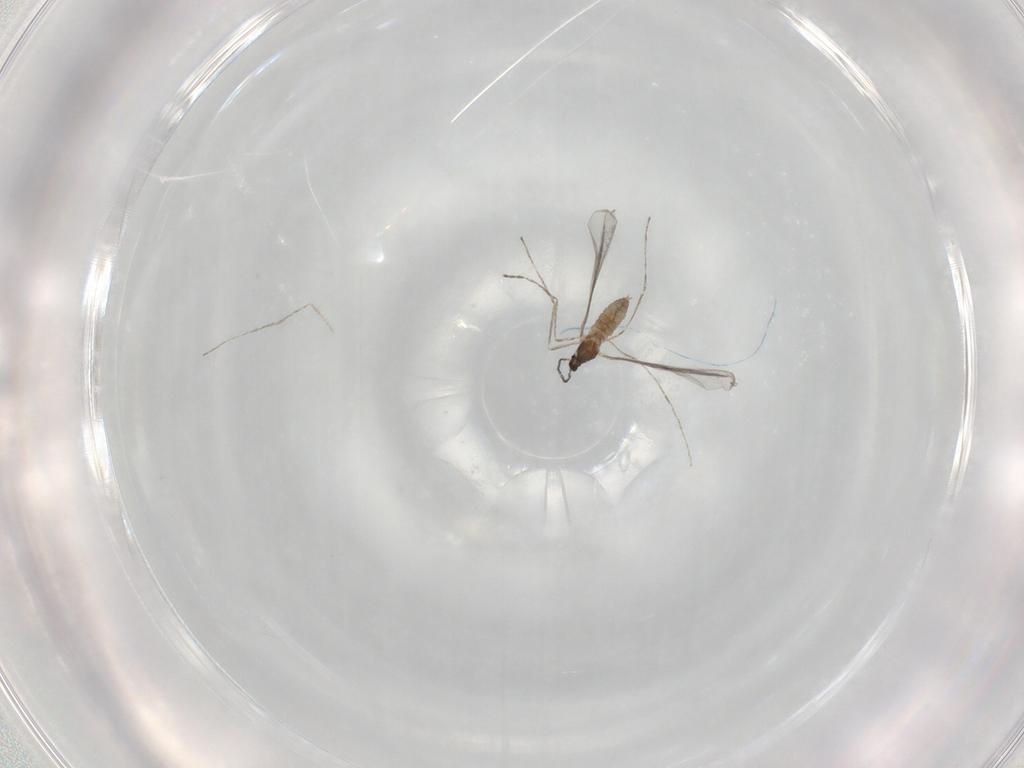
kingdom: Animalia
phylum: Arthropoda
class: Insecta
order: Diptera
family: Cecidomyiidae
